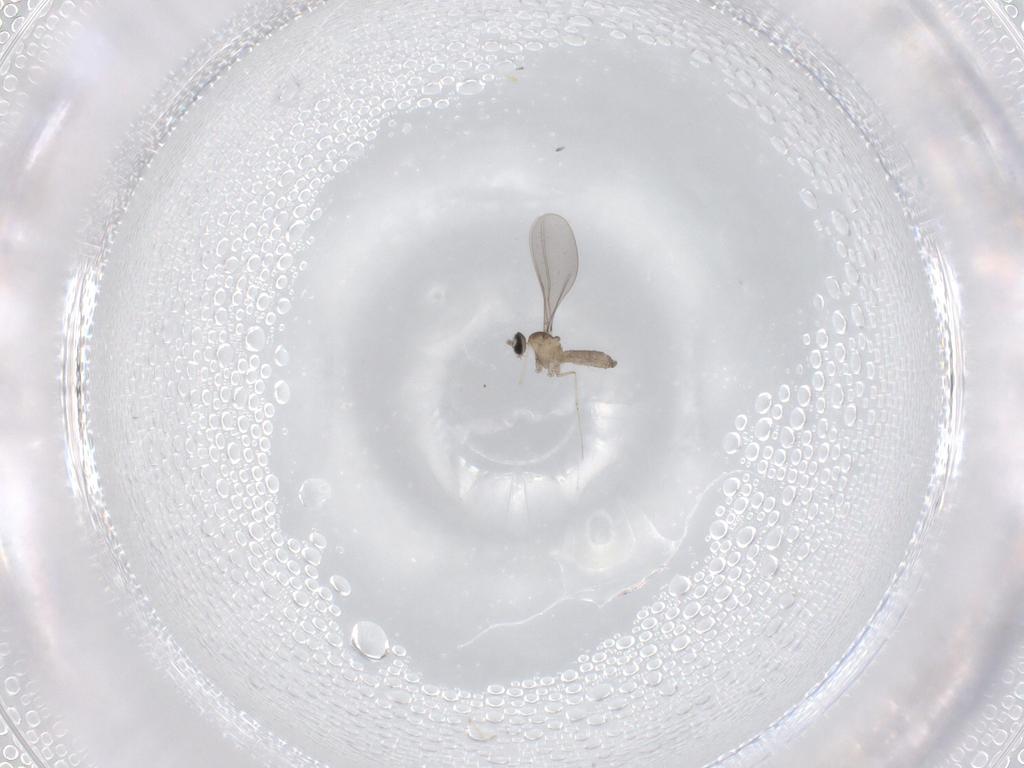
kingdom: Animalia
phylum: Arthropoda
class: Insecta
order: Diptera
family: Cecidomyiidae
